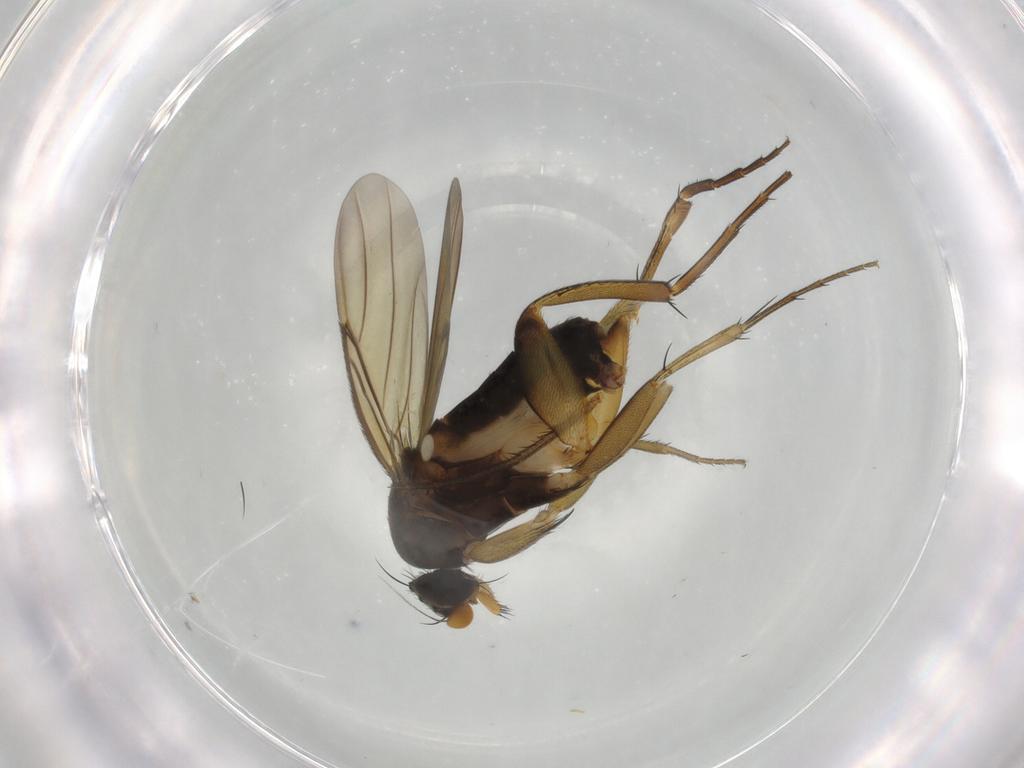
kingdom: Animalia
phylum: Arthropoda
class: Insecta
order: Diptera
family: Phoridae
